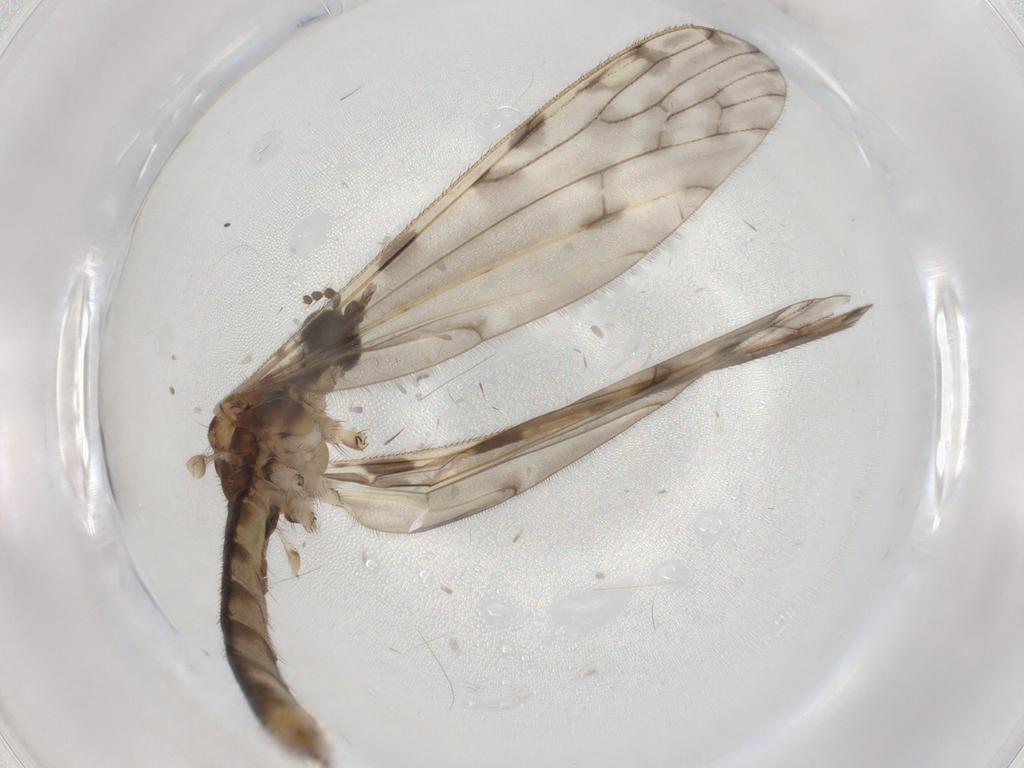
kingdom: Animalia
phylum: Arthropoda
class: Insecta
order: Diptera
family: Limoniidae
